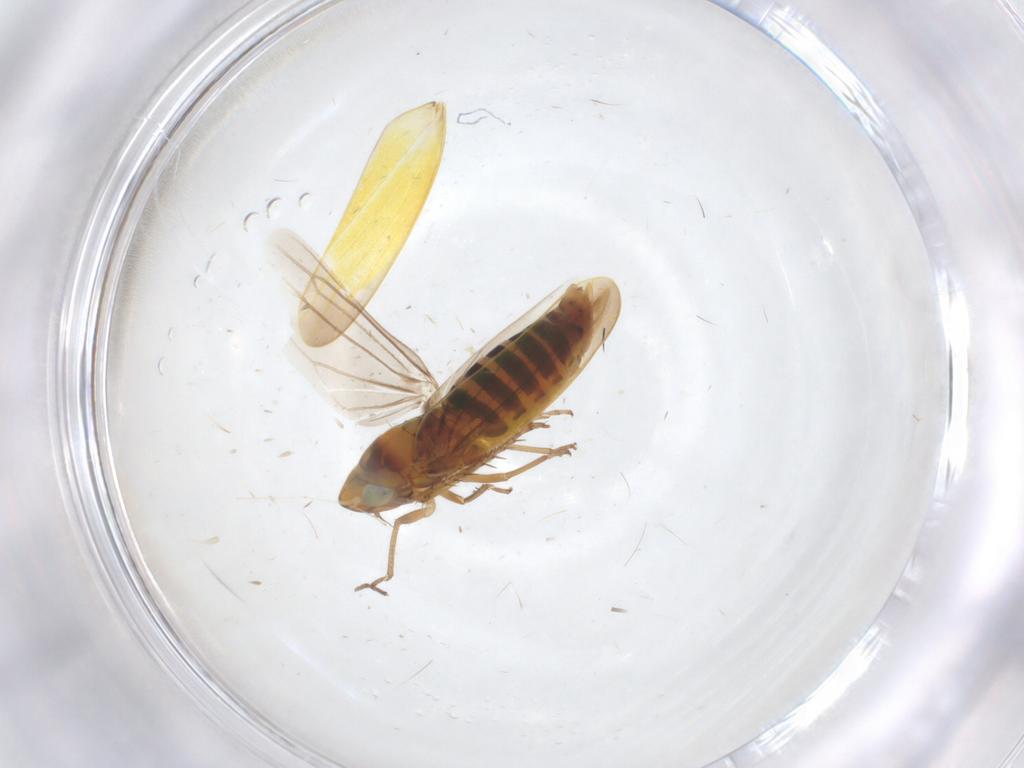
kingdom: Animalia
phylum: Arthropoda
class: Insecta
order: Hemiptera
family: Cicadellidae
